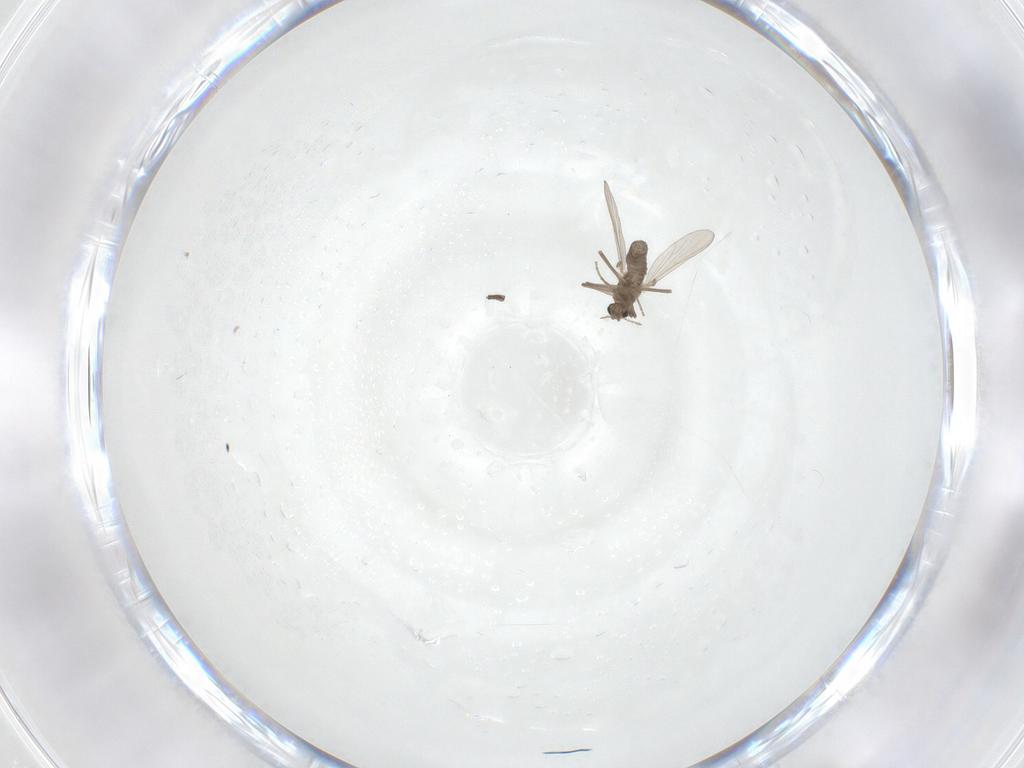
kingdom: Animalia
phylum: Arthropoda
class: Insecta
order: Diptera
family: Mycetophilidae
